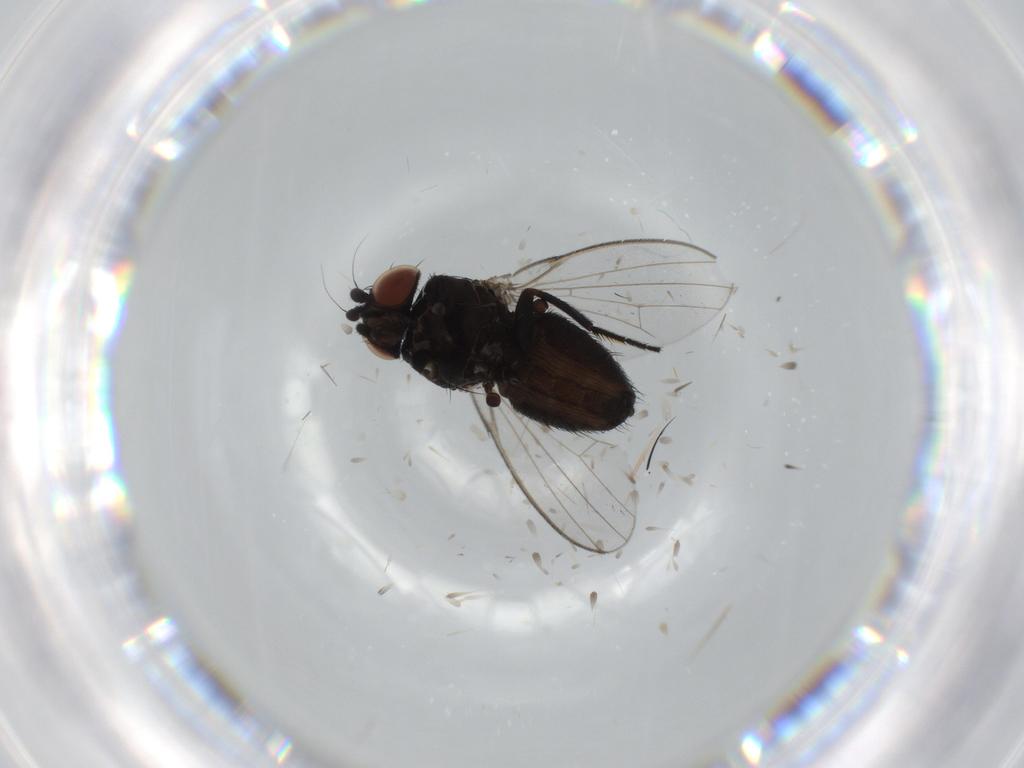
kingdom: Animalia
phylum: Arthropoda
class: Insecta
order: Diptera
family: Milichiidae
